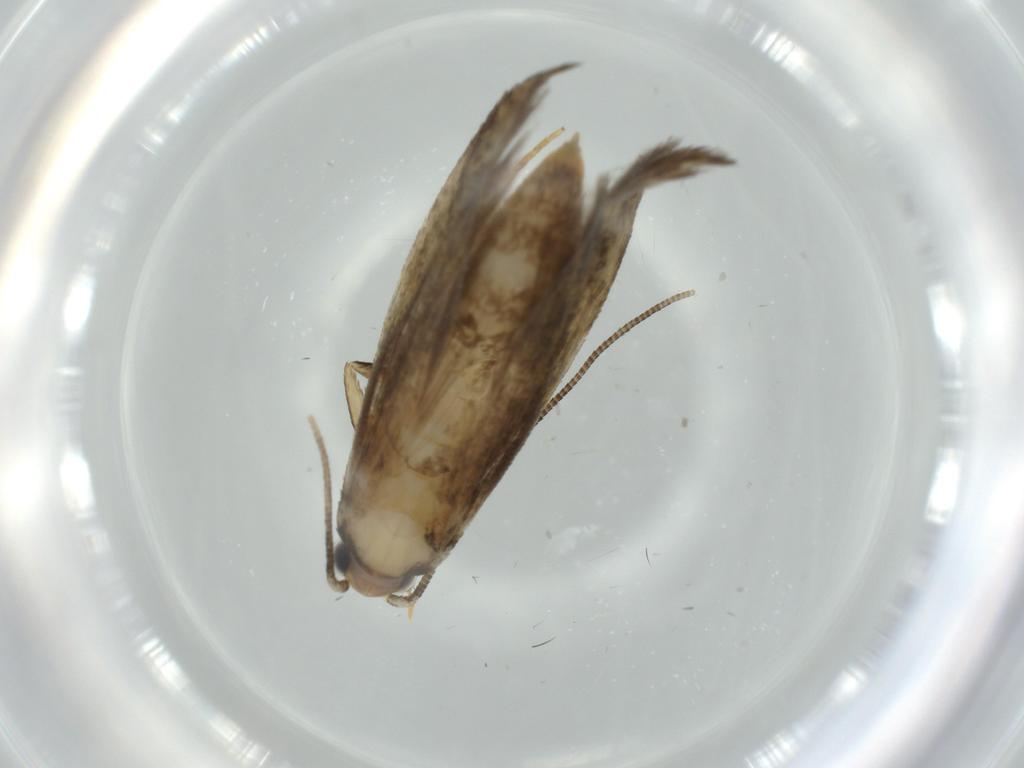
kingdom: Animalia
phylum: Arthropoda
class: Insecta
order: Lepidoptera
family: Tineidae
